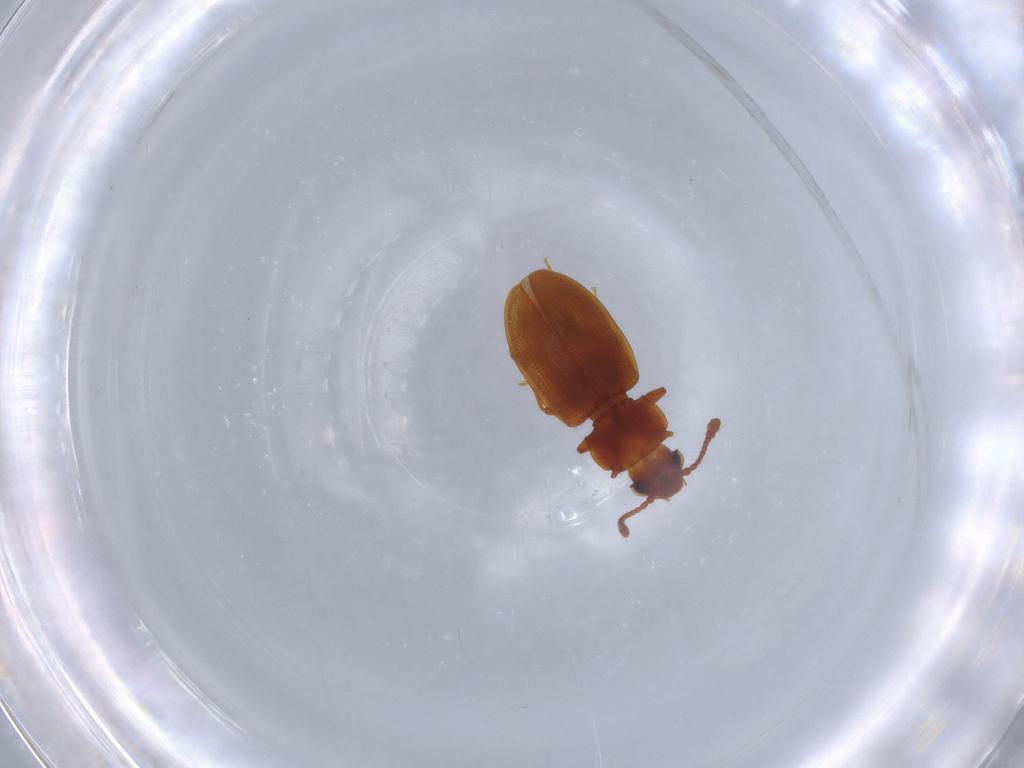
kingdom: Animalia
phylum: Arthropoda
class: Insecta
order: Coleoptera
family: Silvanidae
